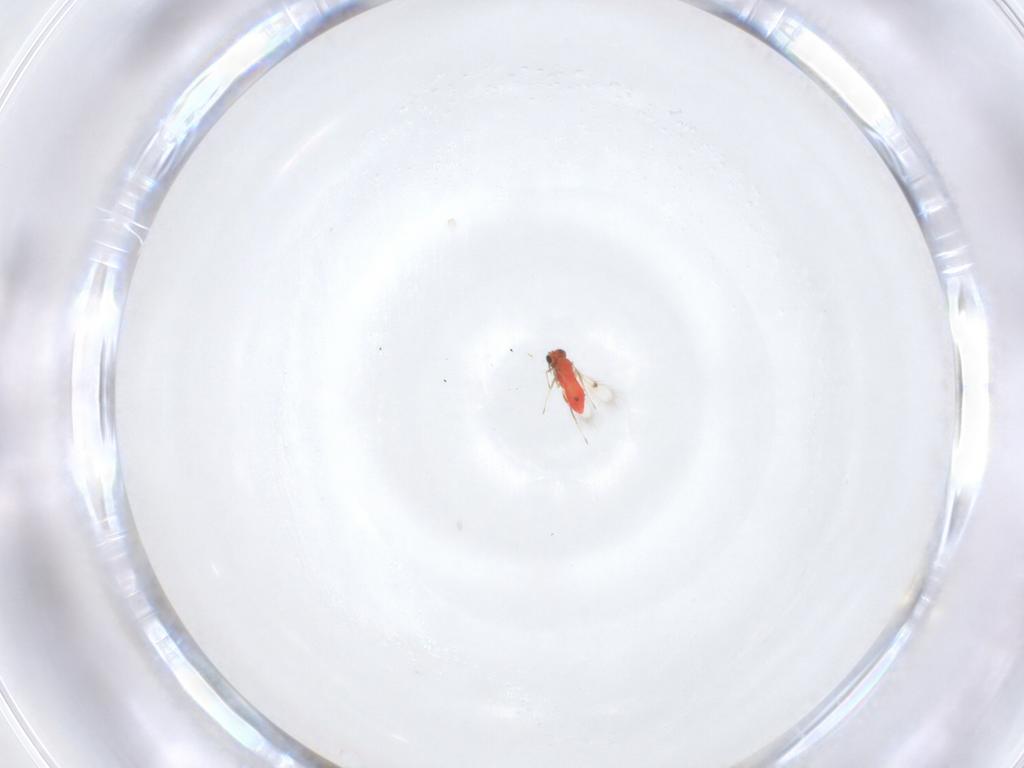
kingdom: Animalia
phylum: Arthropoda
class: Insecta
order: Hymenoptera
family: Trichogrammatidae
